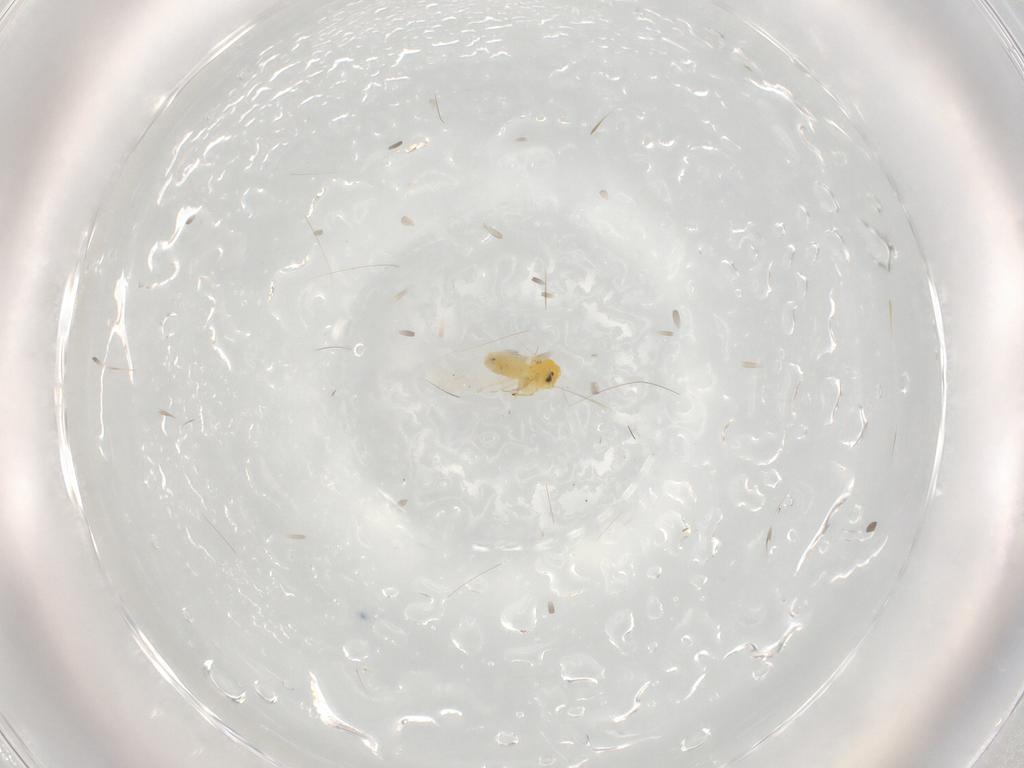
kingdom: Animalia
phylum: Arthropoda
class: Insecta
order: Hemiptera
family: Aleyrodidae
